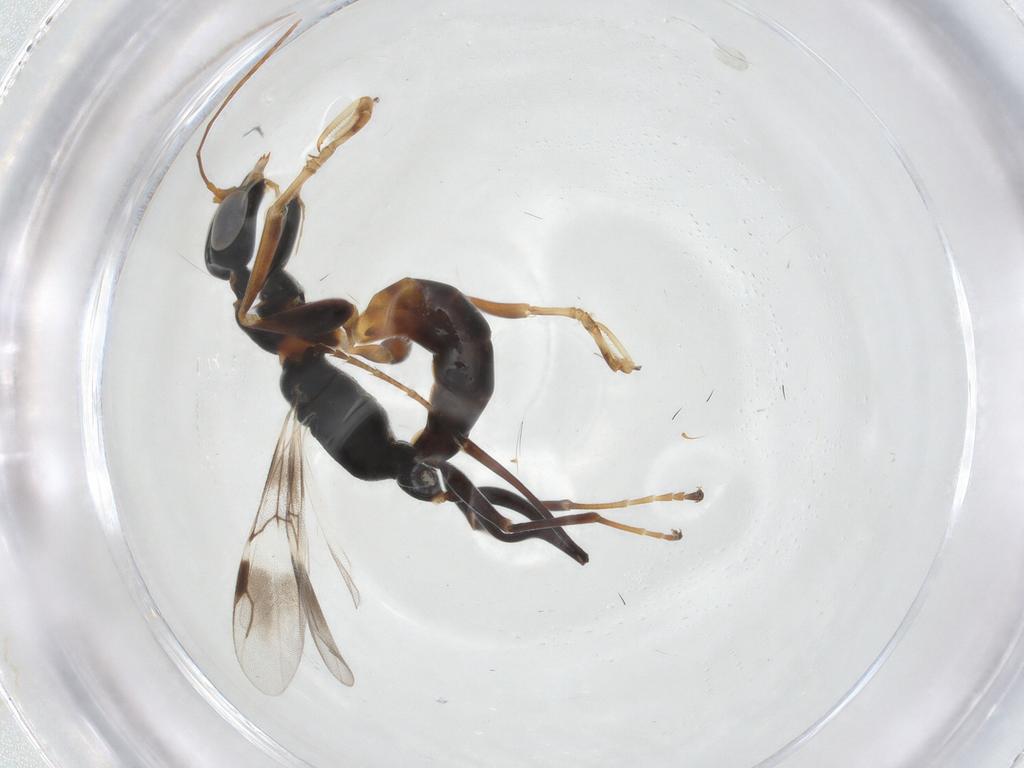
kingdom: Animalia
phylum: Arthropoda
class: Insecta
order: Hymenoptera
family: Dryinidae
